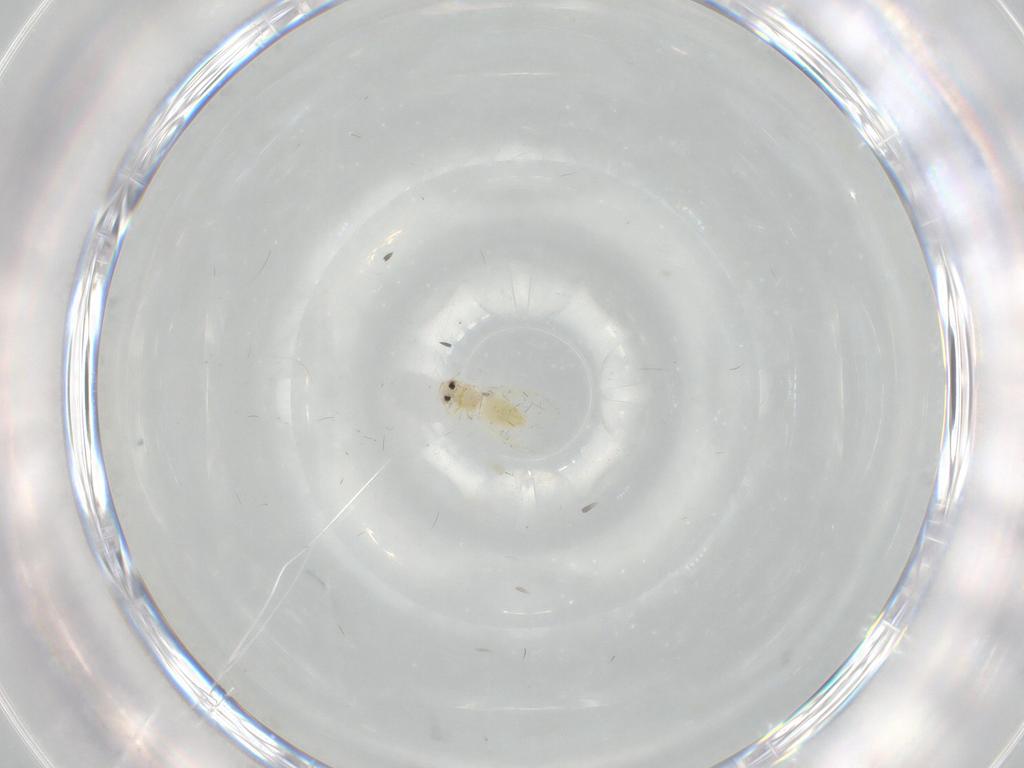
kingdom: Animalia
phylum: Arthropoda
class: Insecta
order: Hemiptera
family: Aleyrodidae
